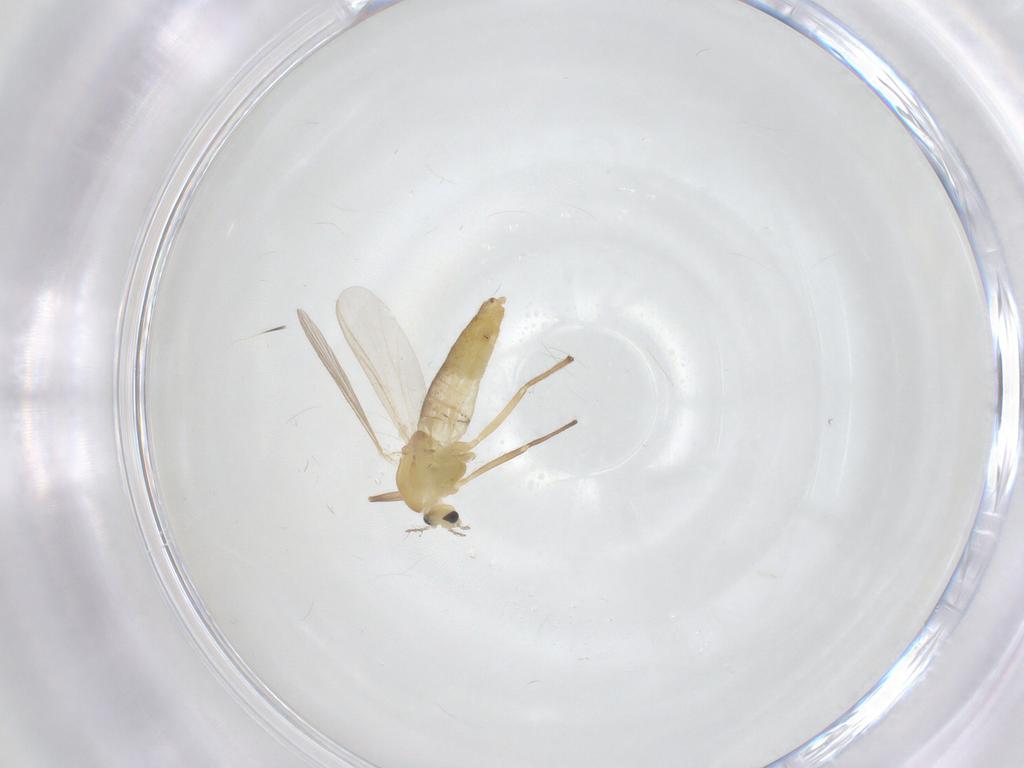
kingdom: Animalia
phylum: Arthropoda
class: Insecta
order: Diptera
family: Chironomidae
